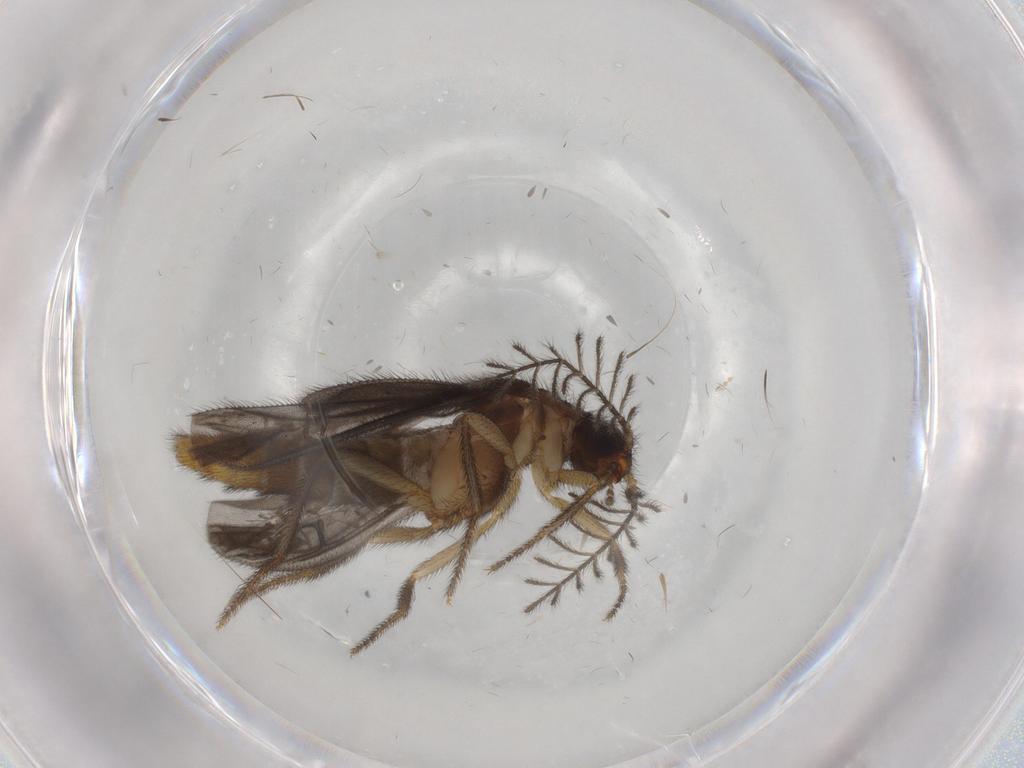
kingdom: Animalia
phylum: Arthropoda
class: Insecta
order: Coleoptera
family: Phengodidae
